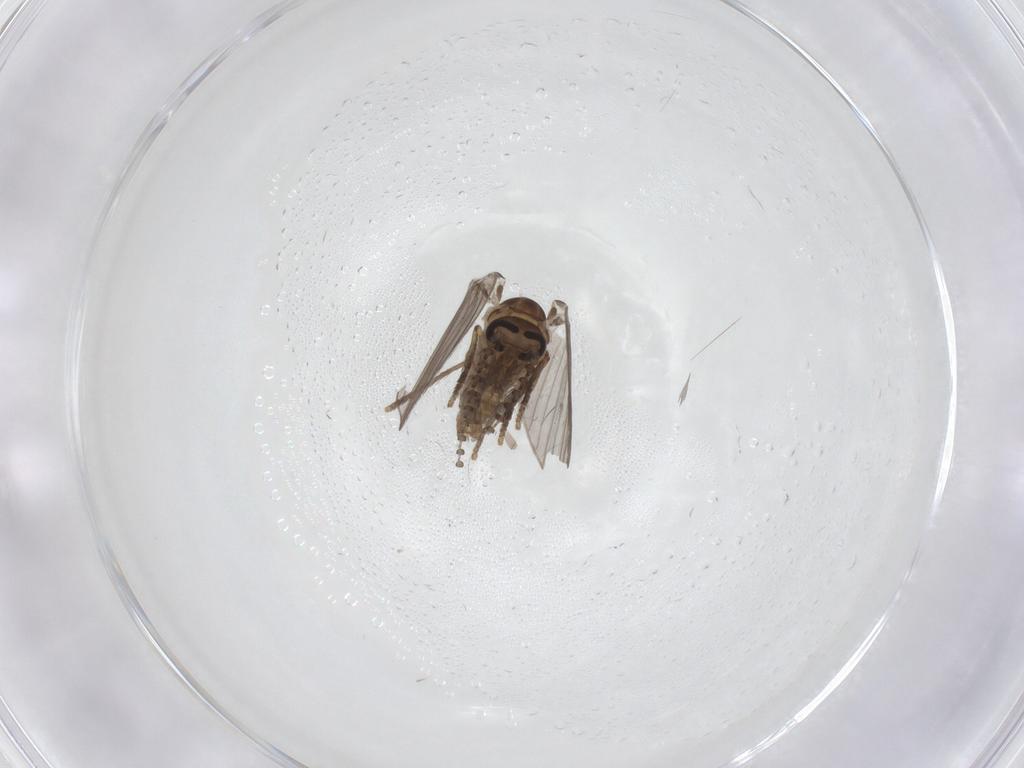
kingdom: Animalia
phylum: Arthropoda
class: Insecta
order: Diptera
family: Psychodidae
